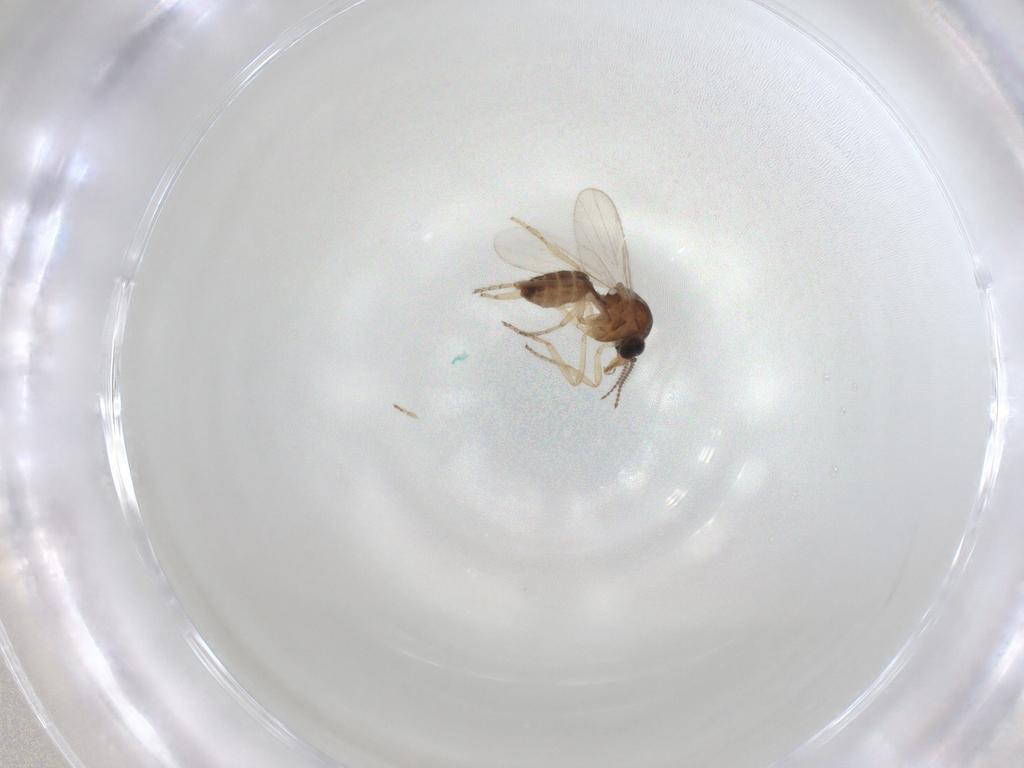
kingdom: Animalia
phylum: Arthropoda
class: Insecta
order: Diptera
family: Ceratopogonidae
